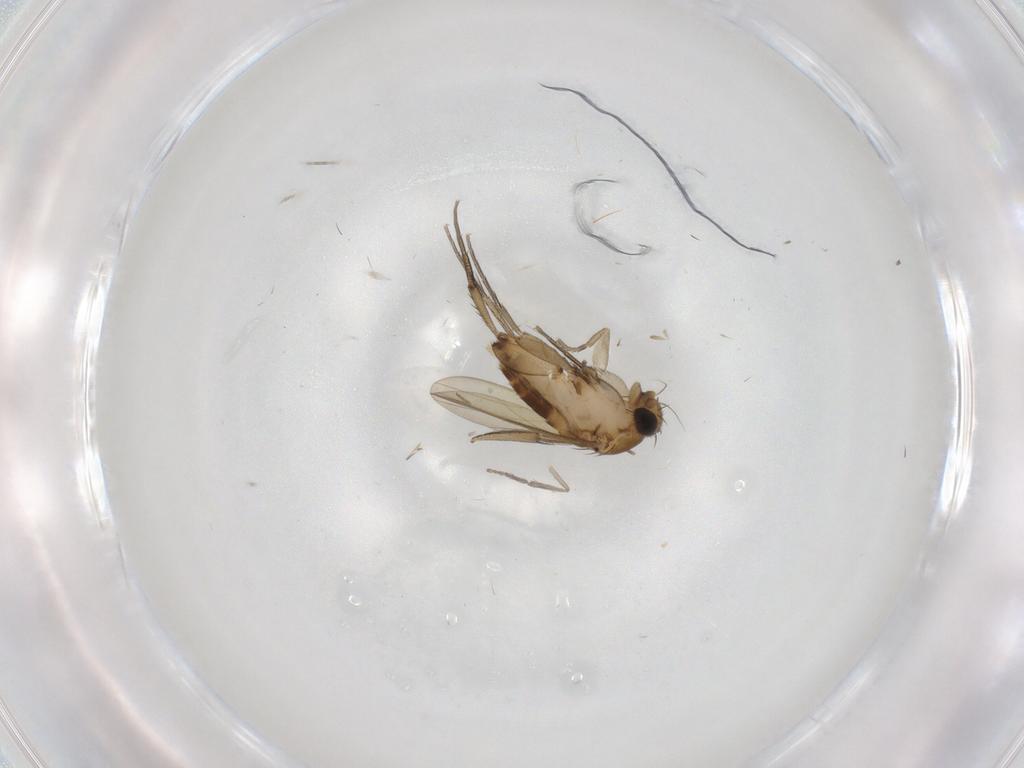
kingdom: Animalia
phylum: Arthropoda
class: Insecta
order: Diptera
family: Phoridae
